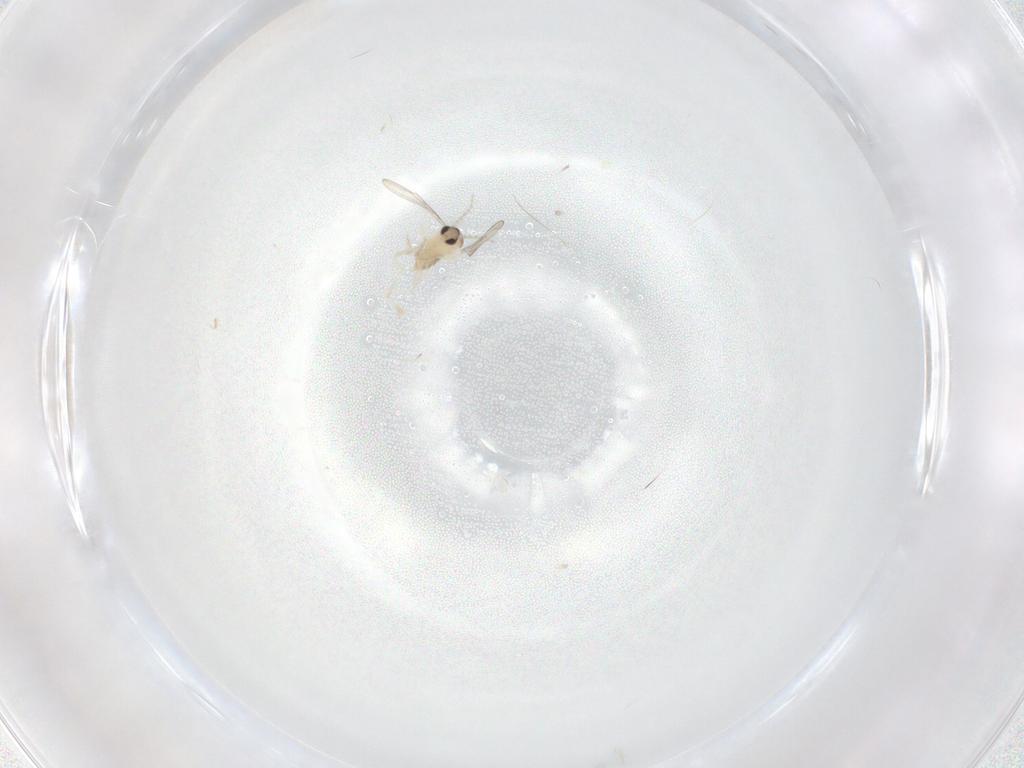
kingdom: Animalia
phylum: Arthropoda
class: Insecta
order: Diptera
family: Cecidomyiidae
